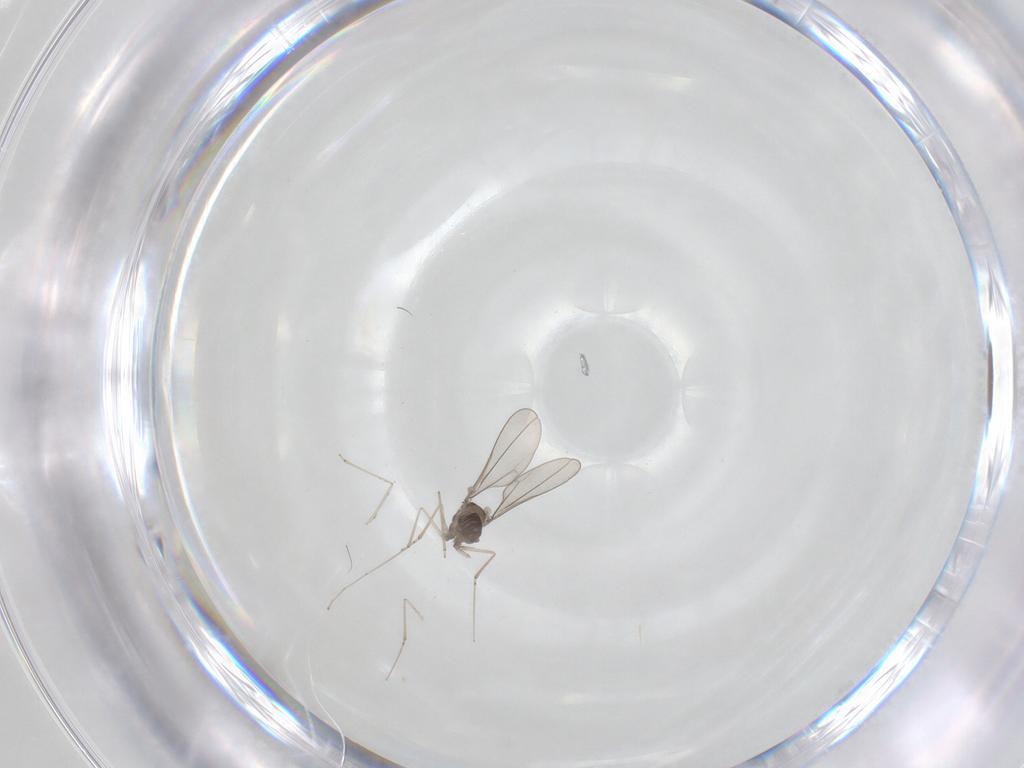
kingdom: Animalia
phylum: Arthropoda
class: Insecta
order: Diptera
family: Cecidomyiidae
